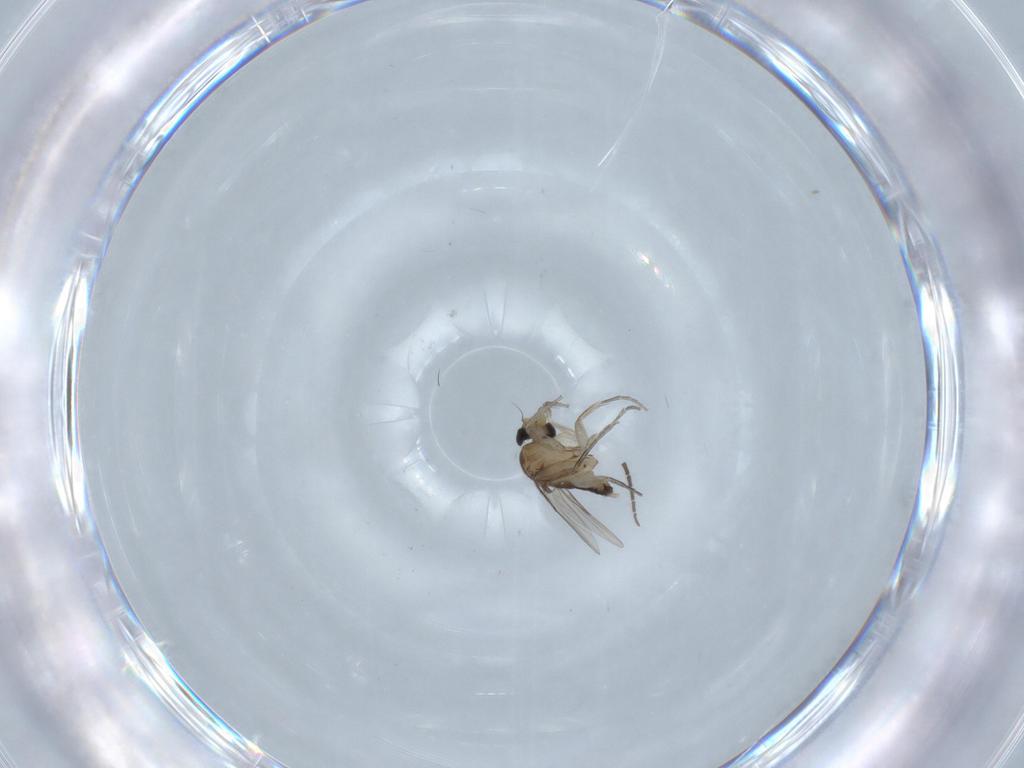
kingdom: Animalia
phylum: Arthropoda
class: Insecta
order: Diptera
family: Phoridae
